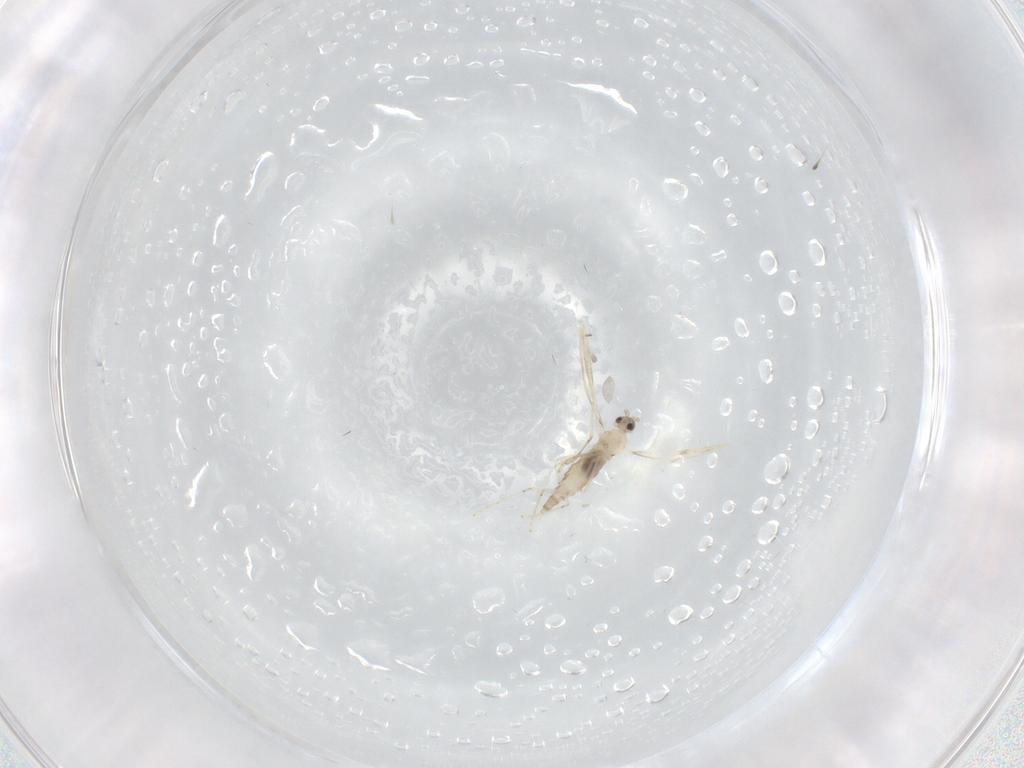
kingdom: Animalia
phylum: Arthropoda
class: Insecta
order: Diptera
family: Cecidomyiidae
